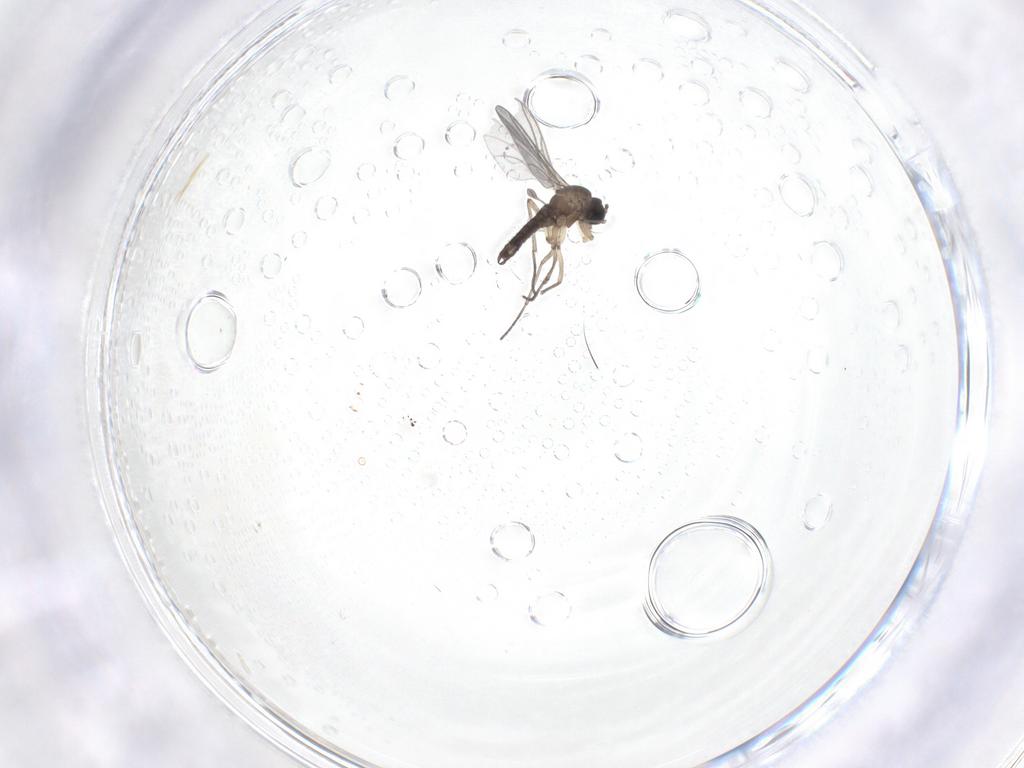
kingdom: Animalia
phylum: Arthropoda
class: Insecta
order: Diptera
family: Sciaridae
